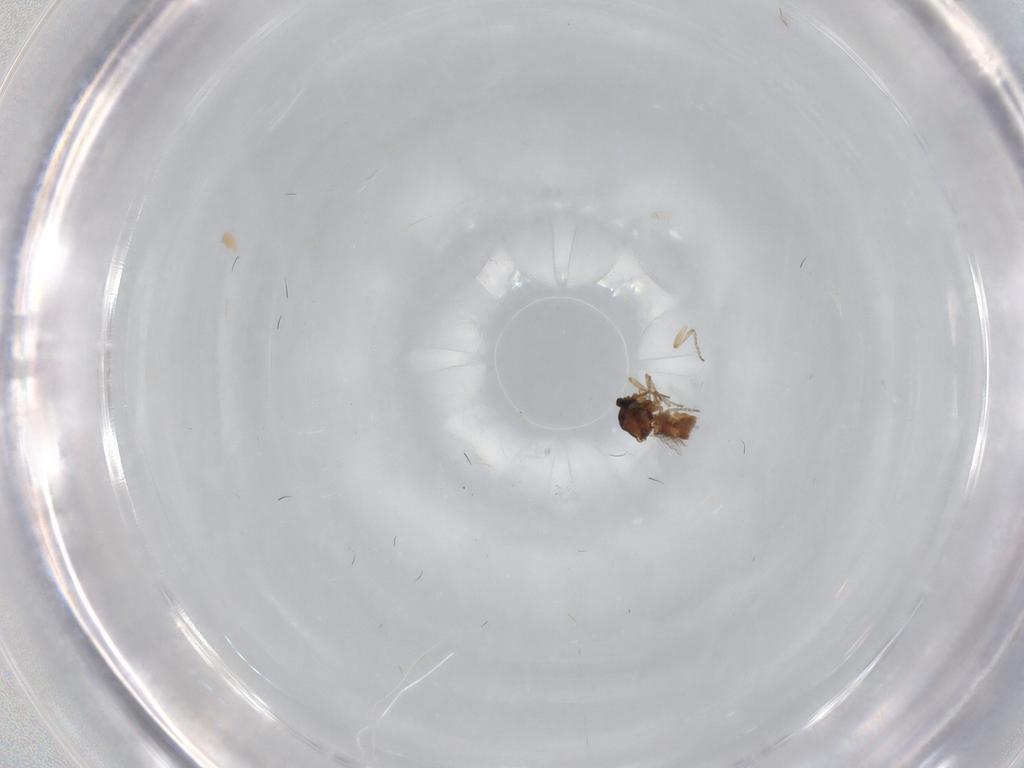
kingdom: Animalia
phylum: Arthropoda
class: Insecta
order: Diptera
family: Ceratopogonidae
